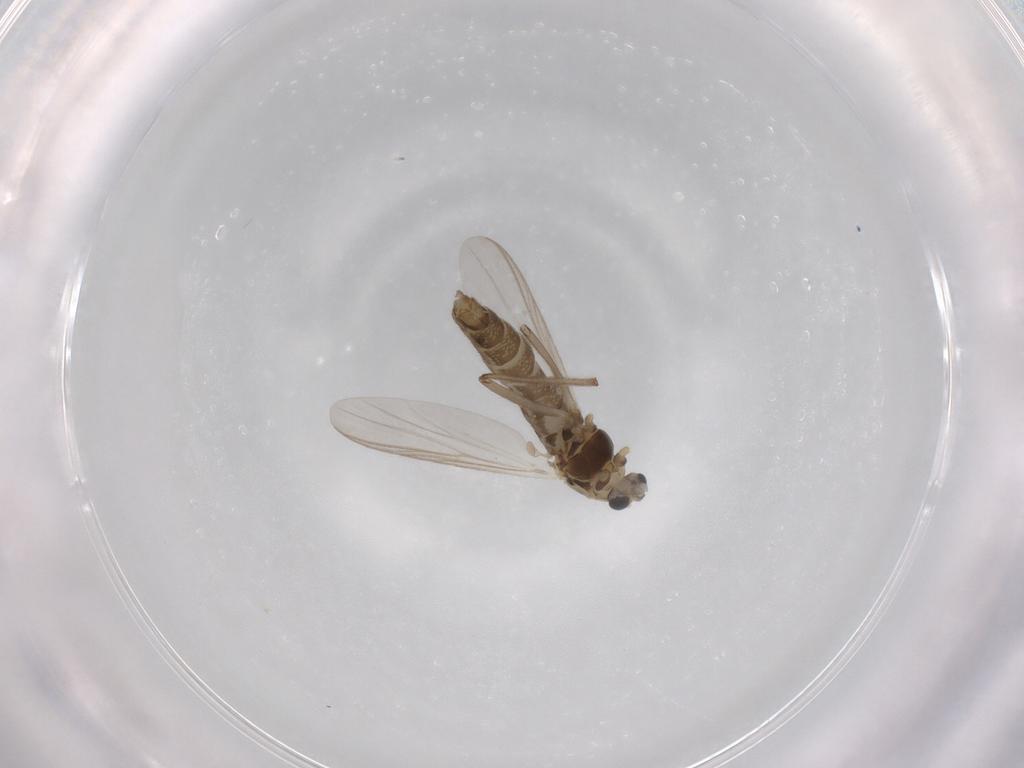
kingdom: Animalia
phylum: Arthropoda
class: Insecta
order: Diptera
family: Chironomidae
